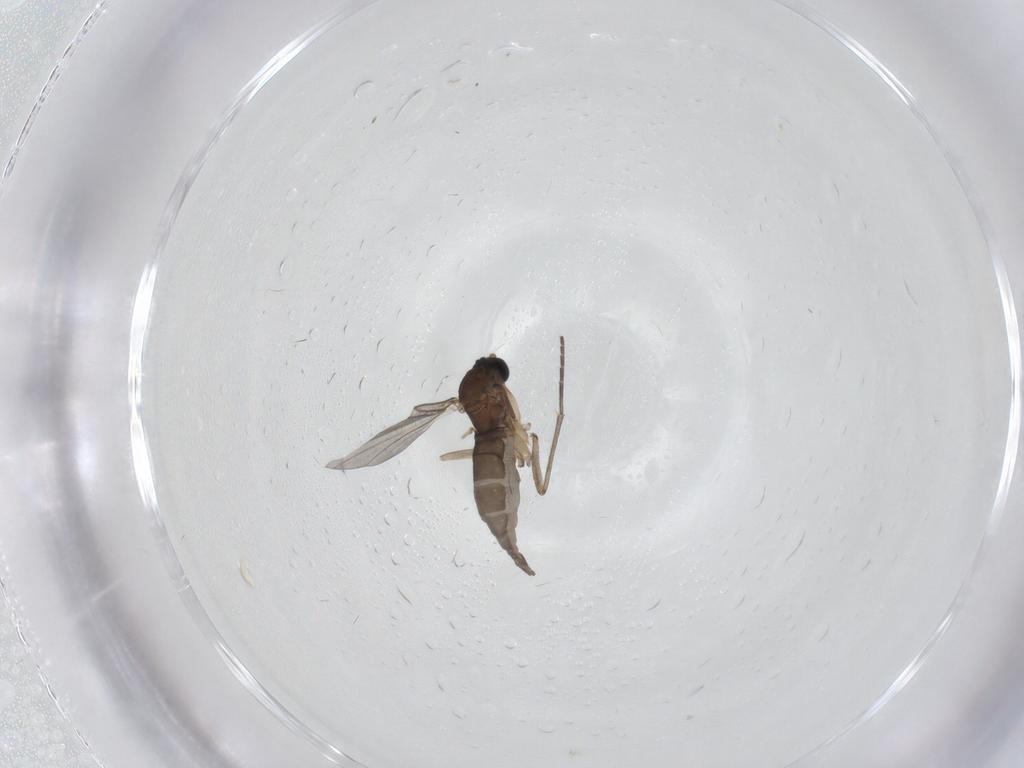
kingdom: Animalia
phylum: Arthropoda
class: Insecta
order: Diptera
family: Sciaridae
